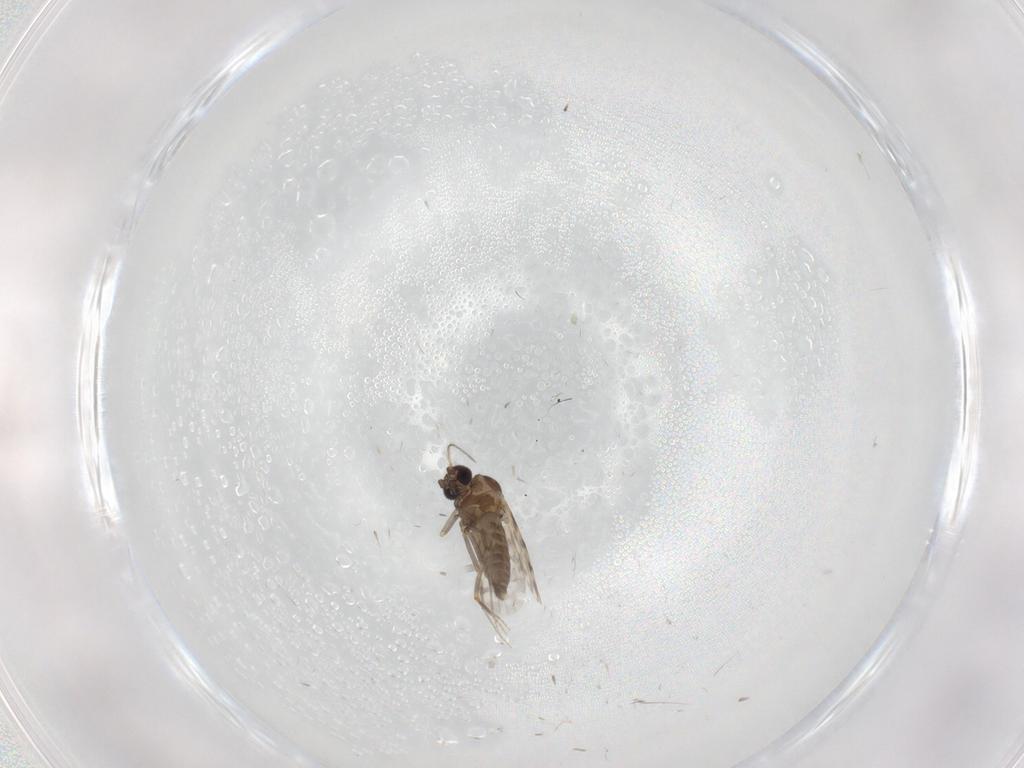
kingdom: Animalia
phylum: Arthropoda
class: Insecta
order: Diptera
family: Ceratopogonidae
